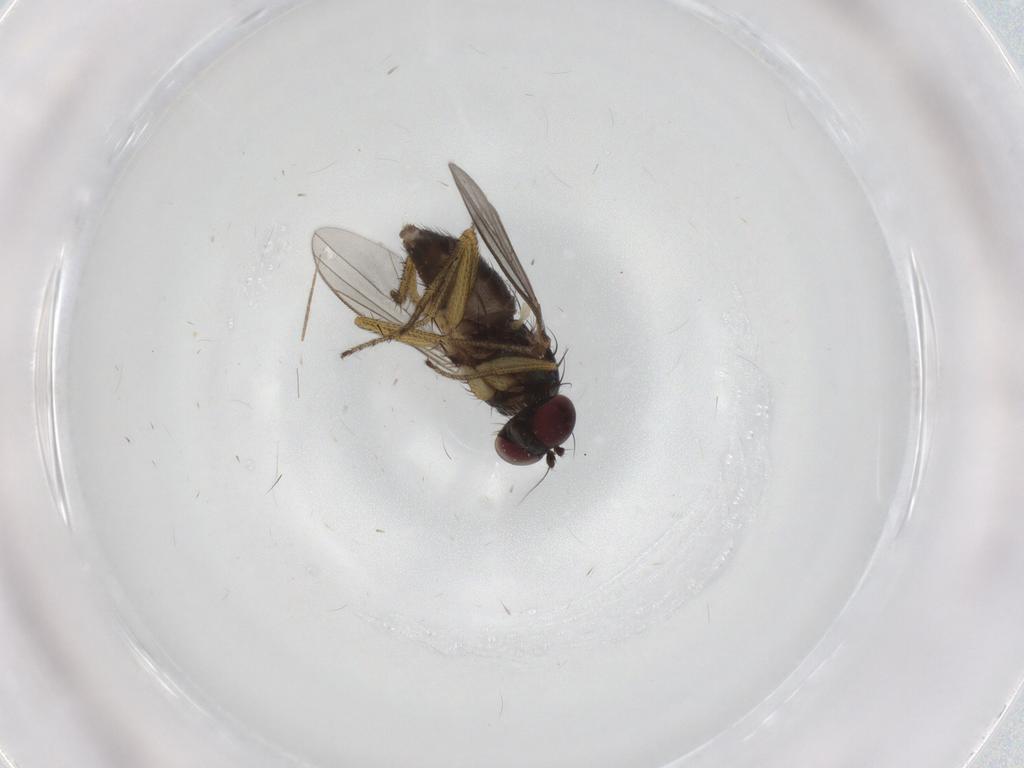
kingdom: Animalia
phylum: Arthropoda
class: Insecta
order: Diptera
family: Chironomidae
